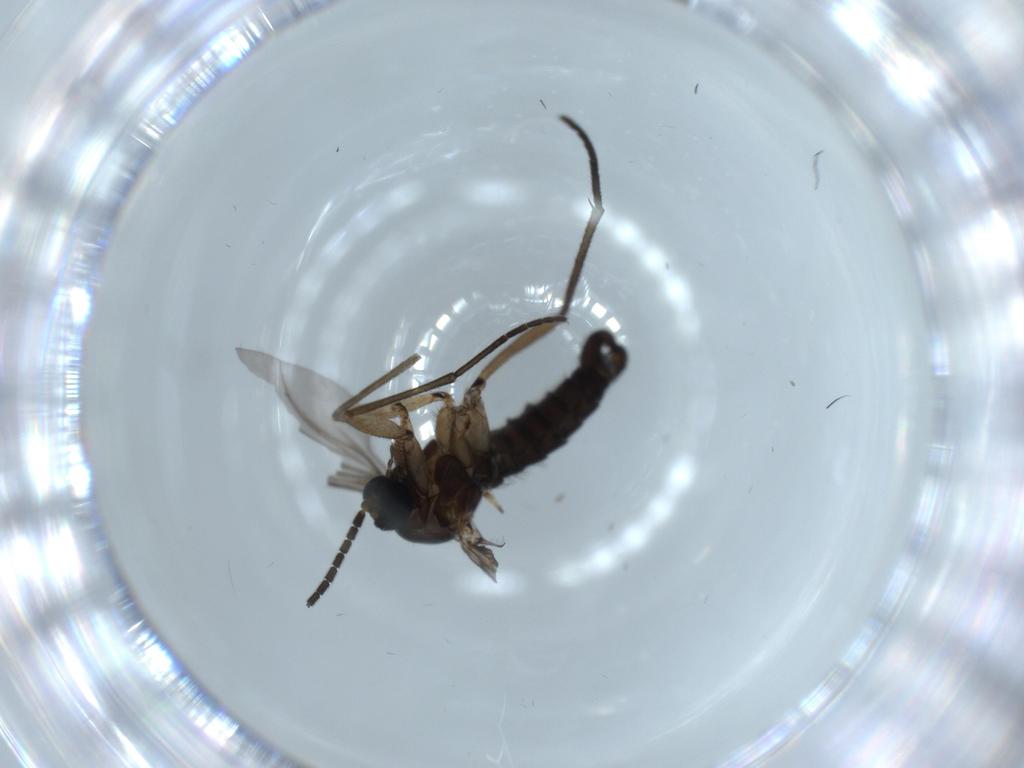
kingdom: Animalia
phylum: Arthropoda
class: Insecta
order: Diptera
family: Sciaridae
